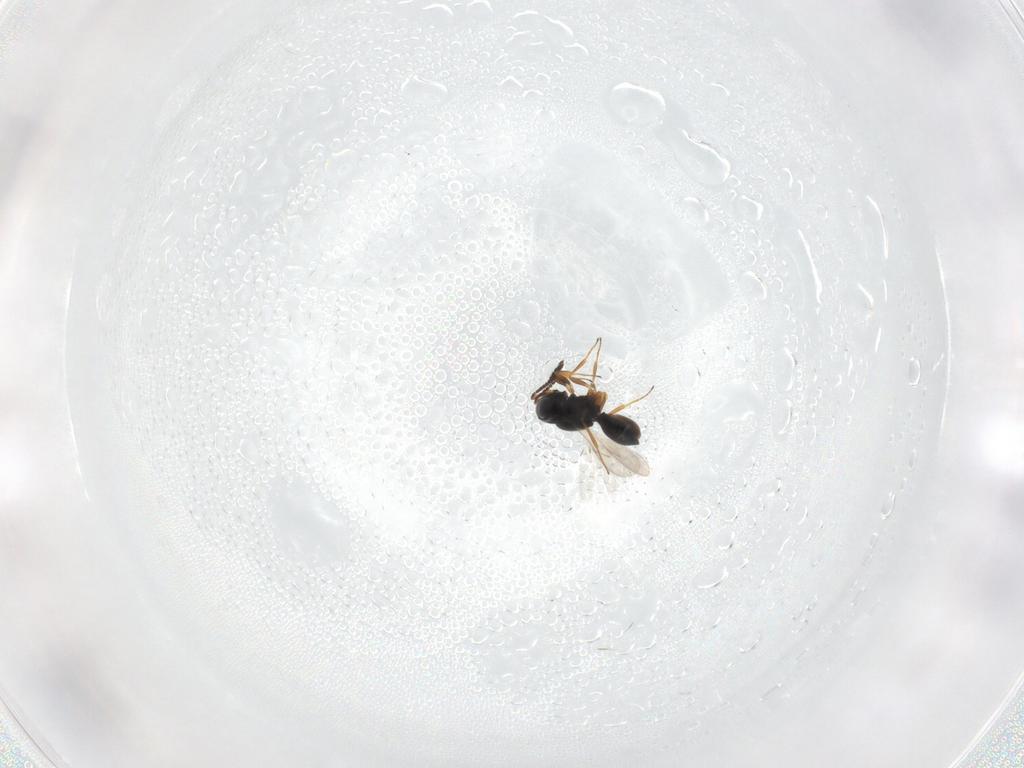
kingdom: Animalia
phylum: Arthropoda
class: Insecta
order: Hymenoptera
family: Scelionidae
